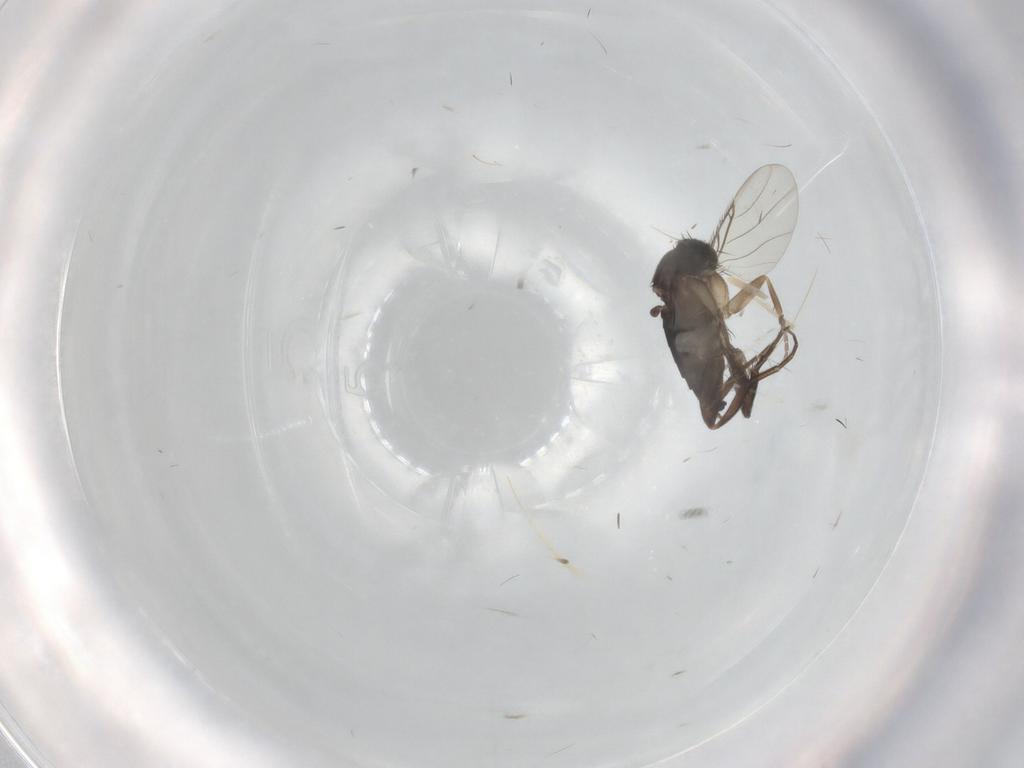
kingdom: Animalia
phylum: Arthropoda
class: Insecta
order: Diptera
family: Phoridae
